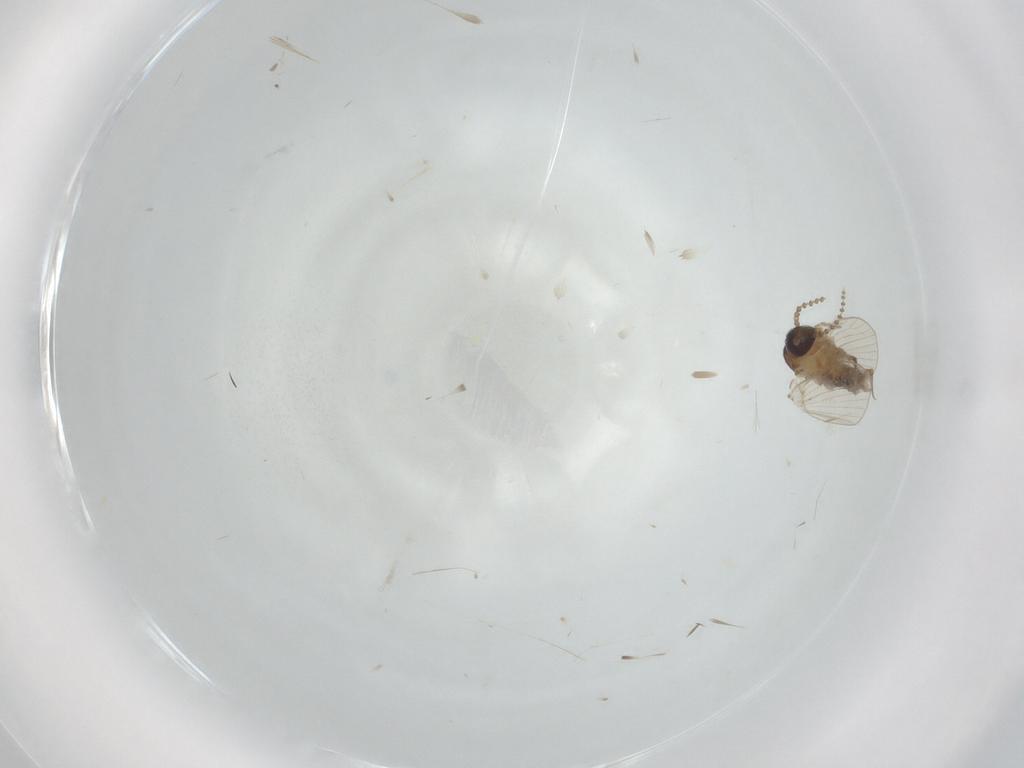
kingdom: Animalia
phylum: Arthropoda
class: Insecta
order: Diptera
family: Psychodidae
